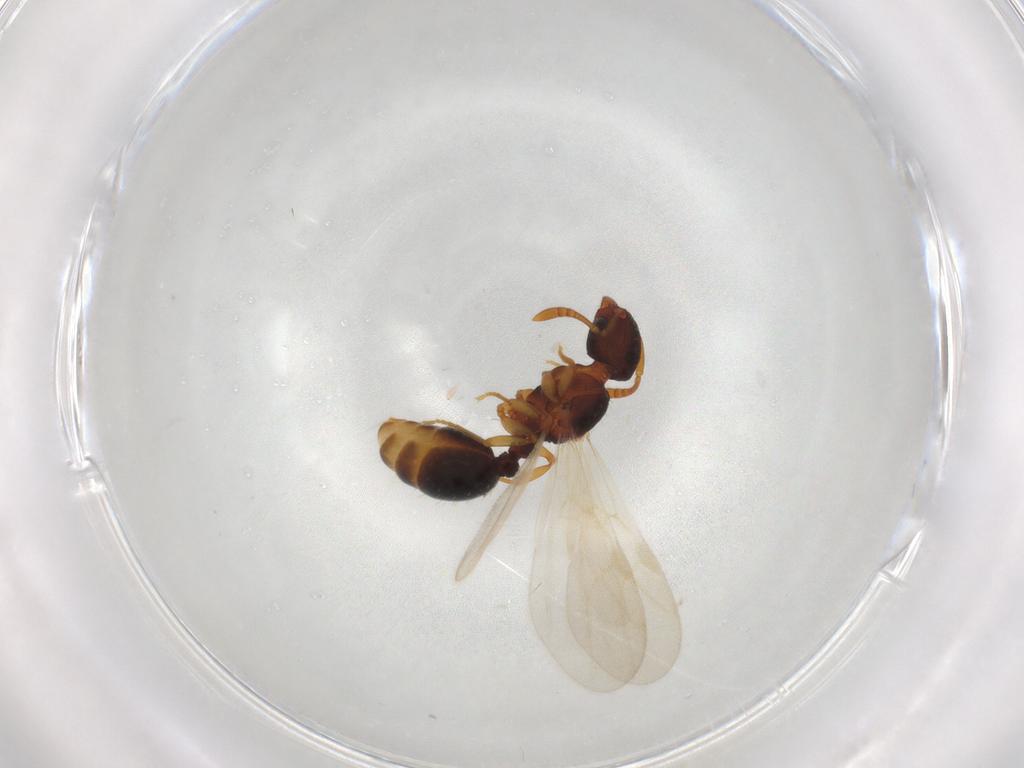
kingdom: Animalia
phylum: Arthropoda
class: Insecta
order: Hymenoptera
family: Formicidae
